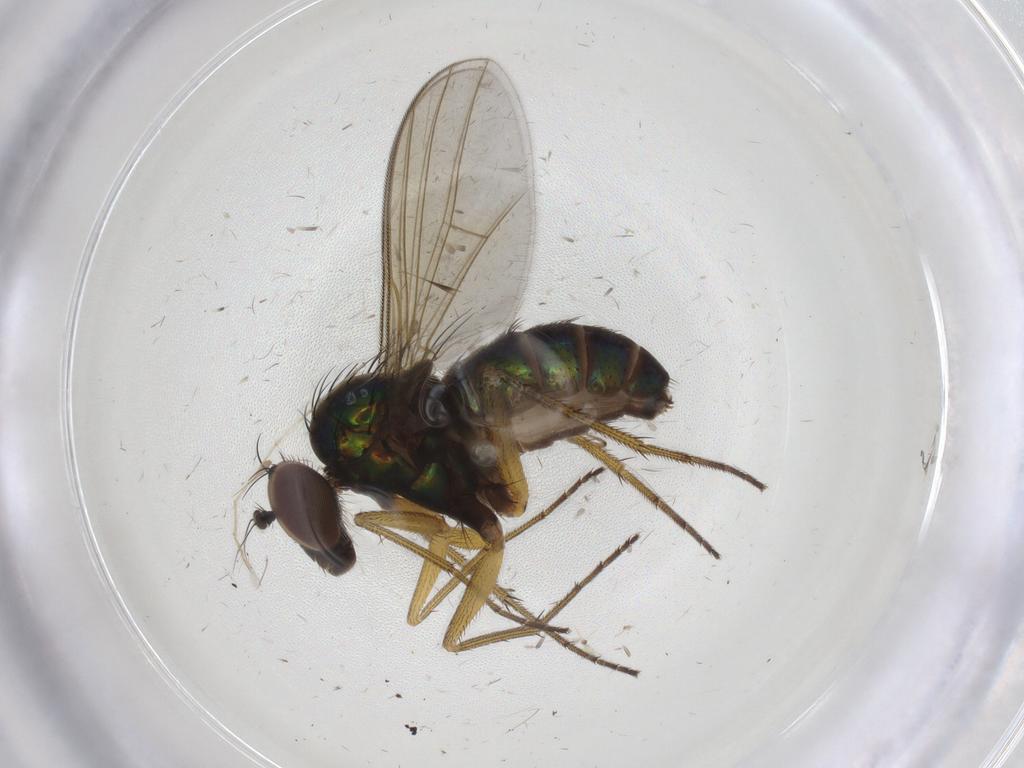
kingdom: Animalia
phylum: Arthropoda
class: Insecta
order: Diptera
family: Dolichopodidae
